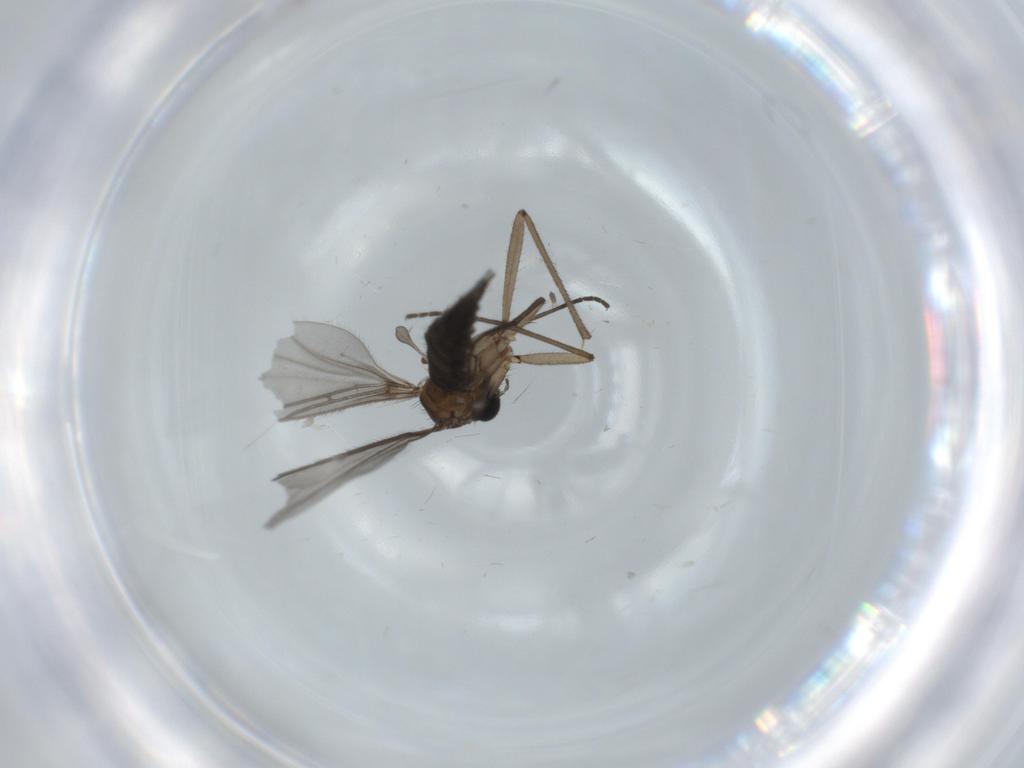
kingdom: Animalia
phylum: Arthropoda
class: Insecta
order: Diptera
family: Sciaridae
